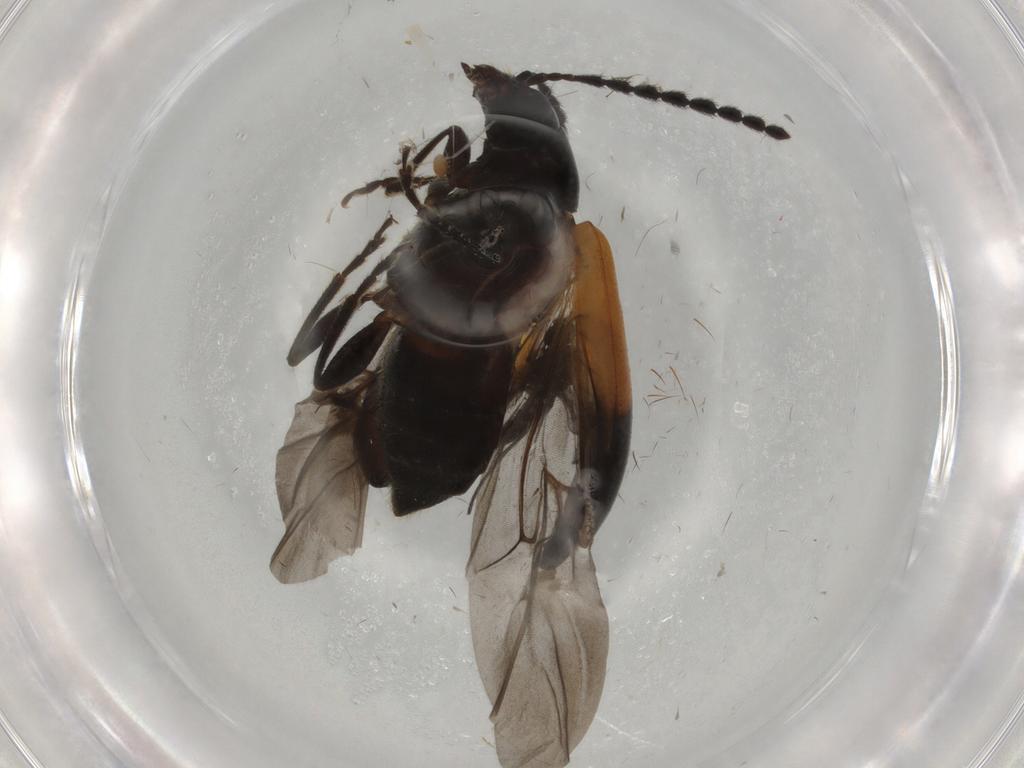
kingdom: Animalia
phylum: Arthropoda
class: Insecta
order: Coleoptera
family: Chrysomelidae
